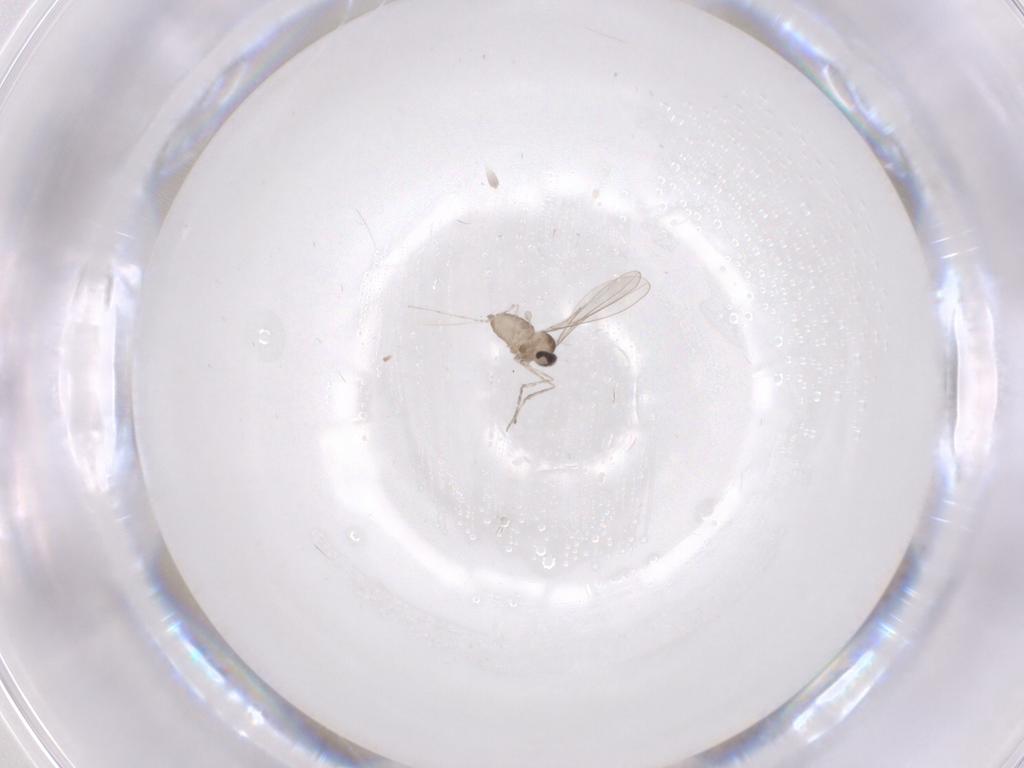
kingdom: Animalia
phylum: Arthropoda
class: Insecta
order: Diptera
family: Cecidomyiidae
